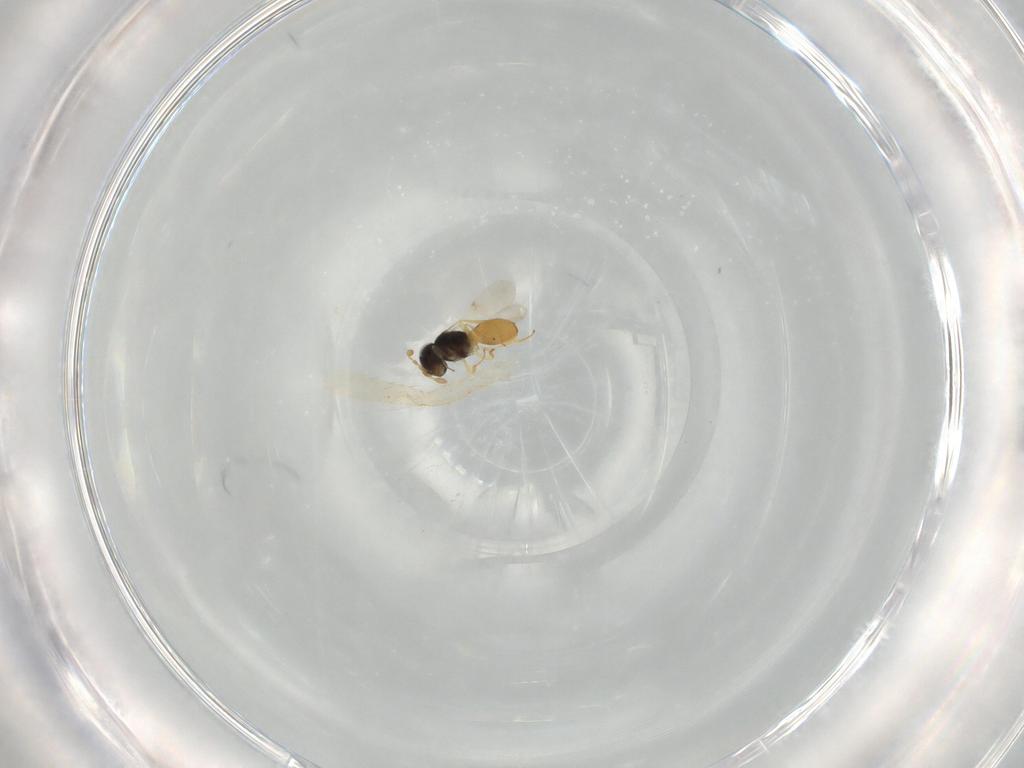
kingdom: Animalia
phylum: Arthropoda
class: Insecta
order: Hymenoptera
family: Scelionidae
